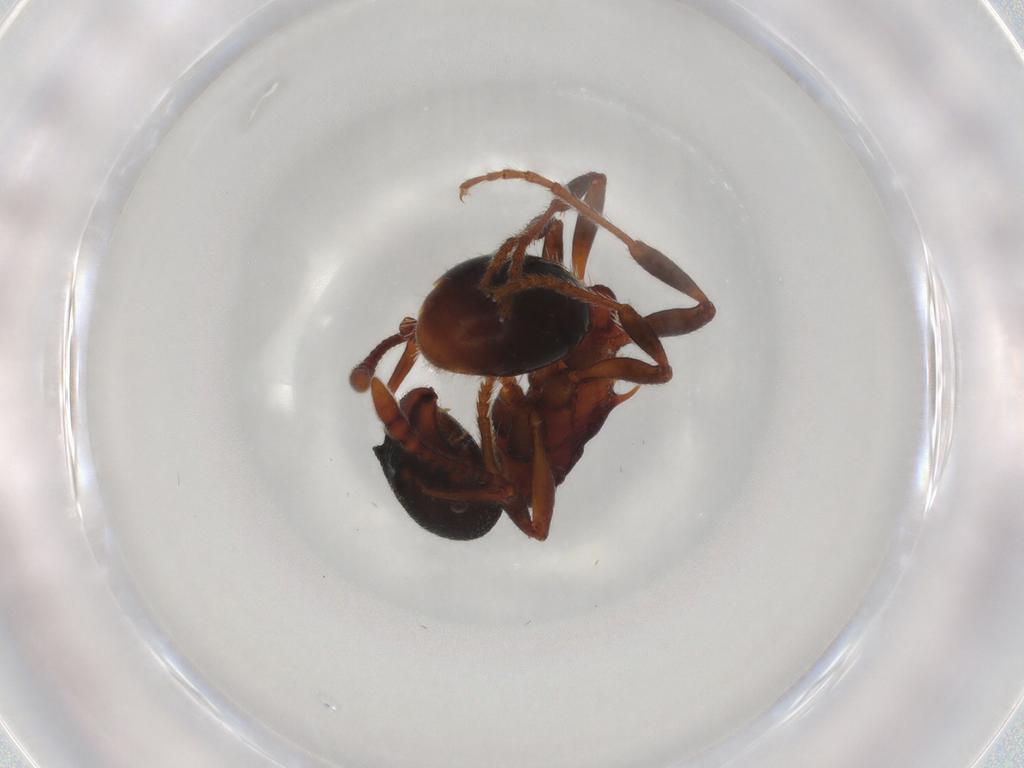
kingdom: Animalia
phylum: Arthropoda
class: Insecta
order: Hymenoptera
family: Formicidae
